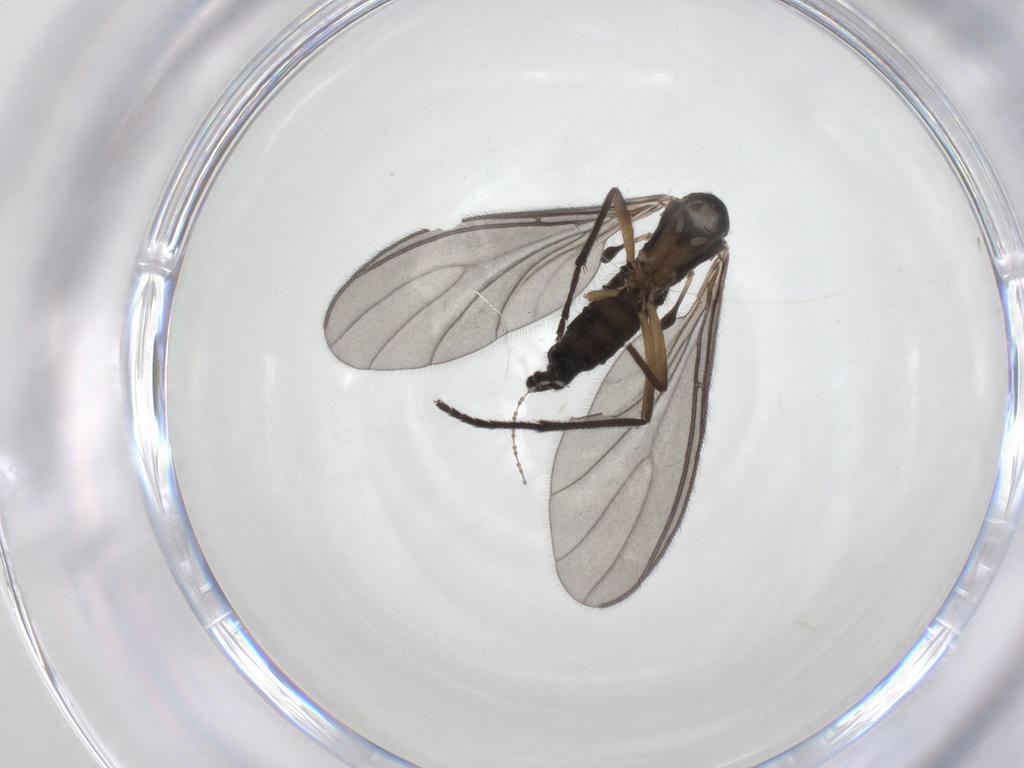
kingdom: Animalia
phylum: Arthropoda
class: Insecta
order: Diptera
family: Sciaridae
